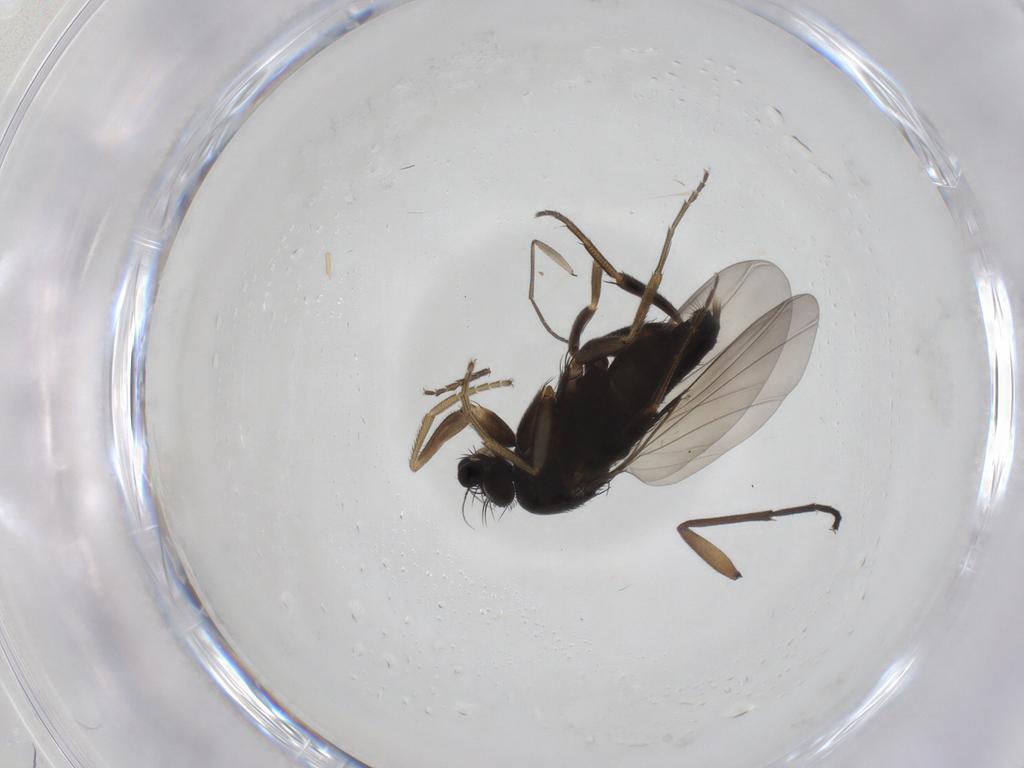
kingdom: Animalia
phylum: Arthropoda
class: Insecta
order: Diptera
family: Phoridae
